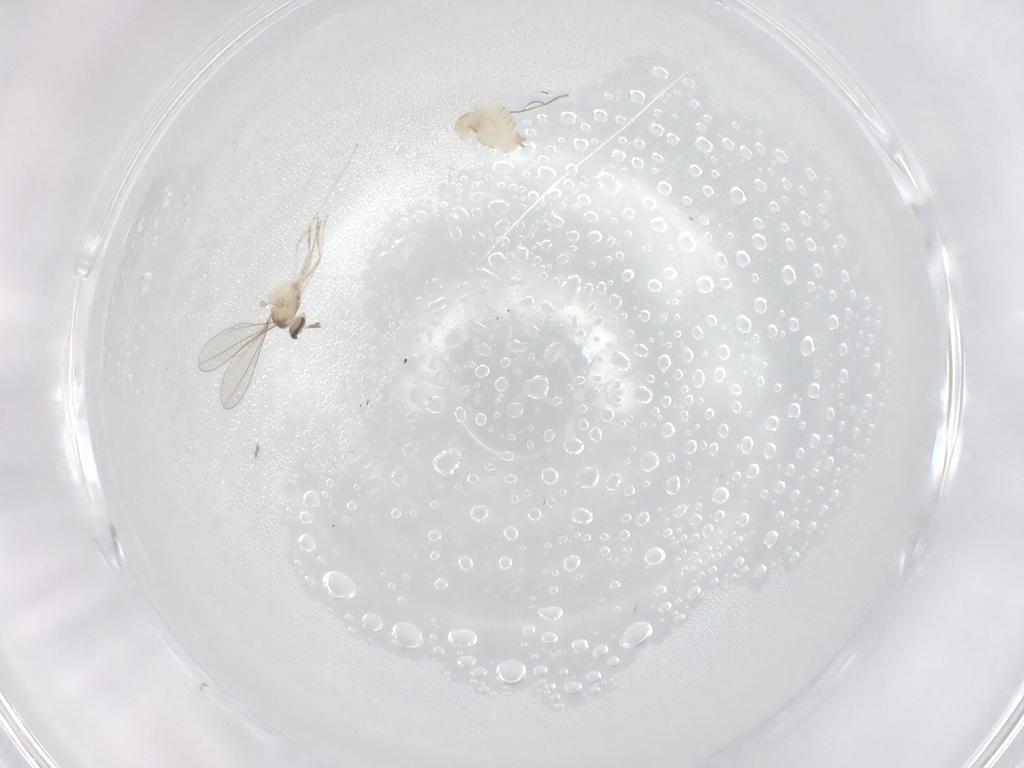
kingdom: Animalia
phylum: Arthropoda
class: Insecta
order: Diptera
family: Cecidomyiidae
